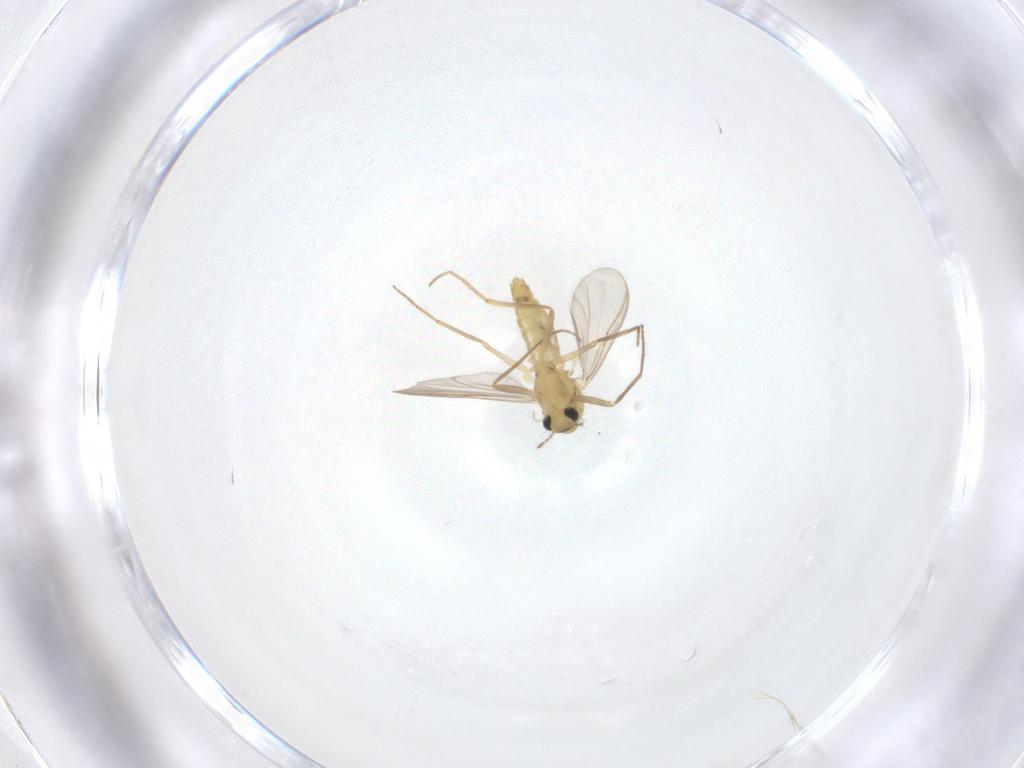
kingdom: Animalia
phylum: Arthropoda
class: Insecta
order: Diptera
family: Chironomidae
